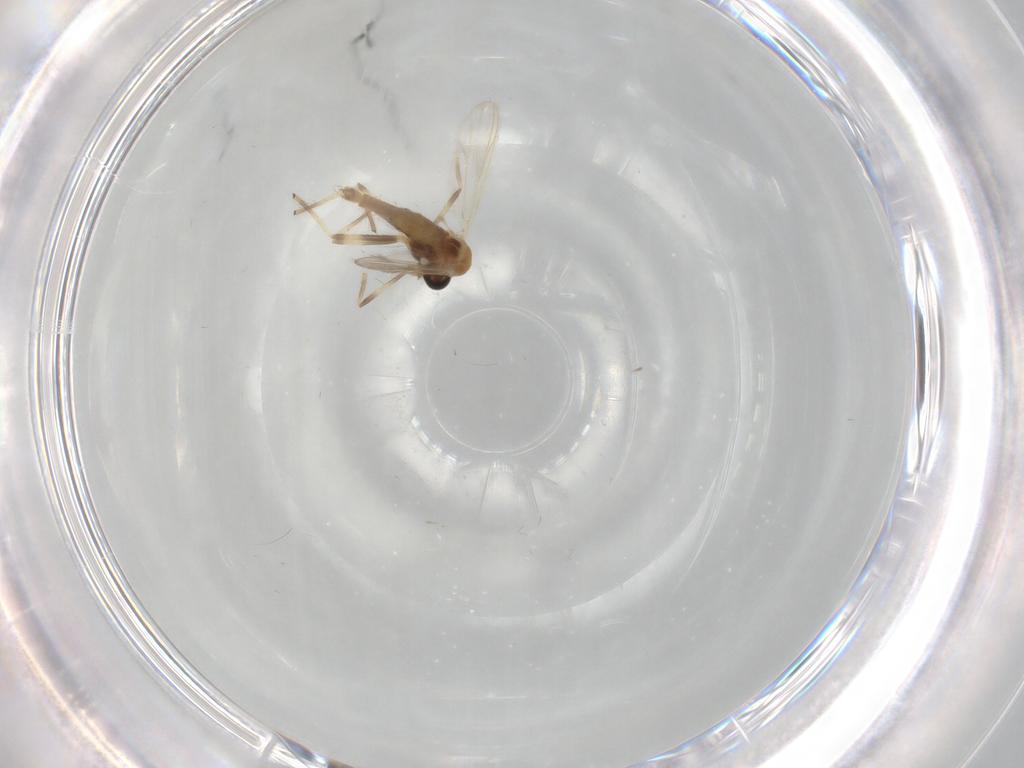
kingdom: Animalia
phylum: Arthropoda
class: Insecta
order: Diptera
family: Chironomidae
